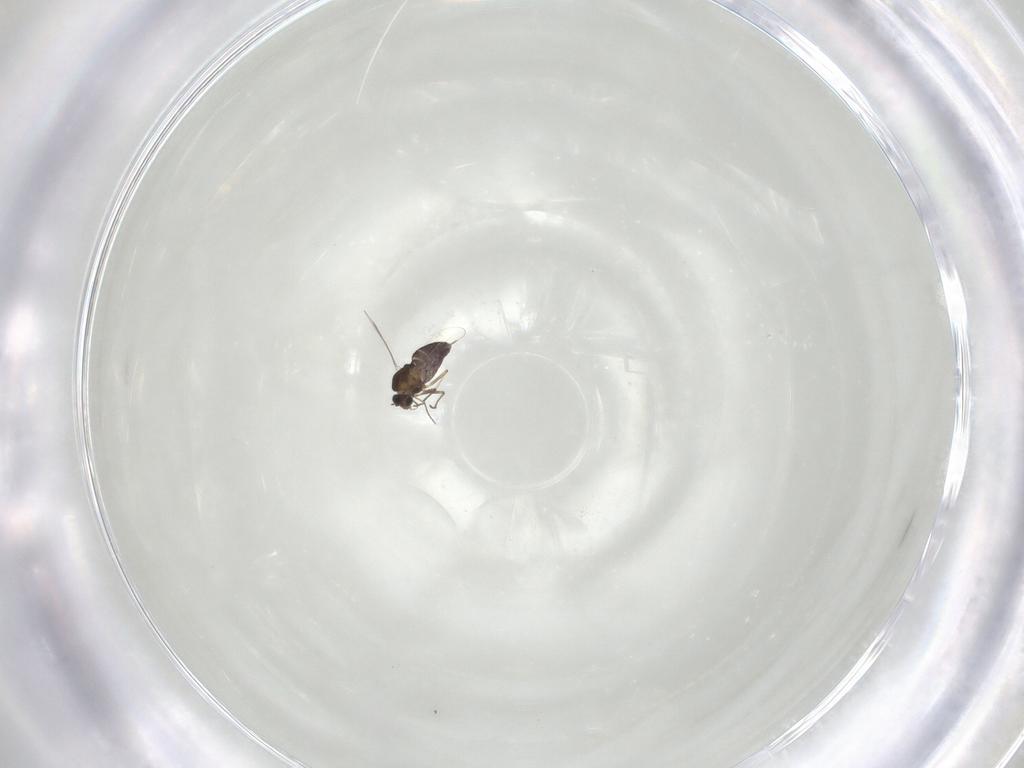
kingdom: Animalia
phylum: Arthropoda
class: Insecta
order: Diptera
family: Chironomidae
